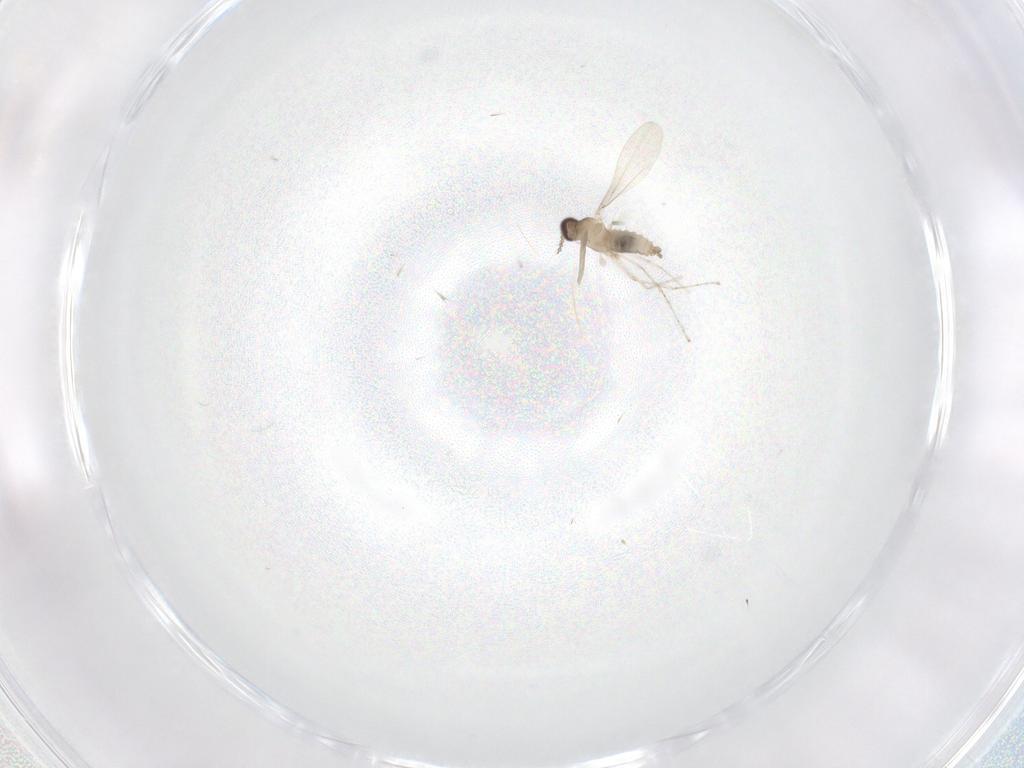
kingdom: Animalia
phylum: Arthropoda
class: Insecta
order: Diptera
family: Cecidomyiidae
